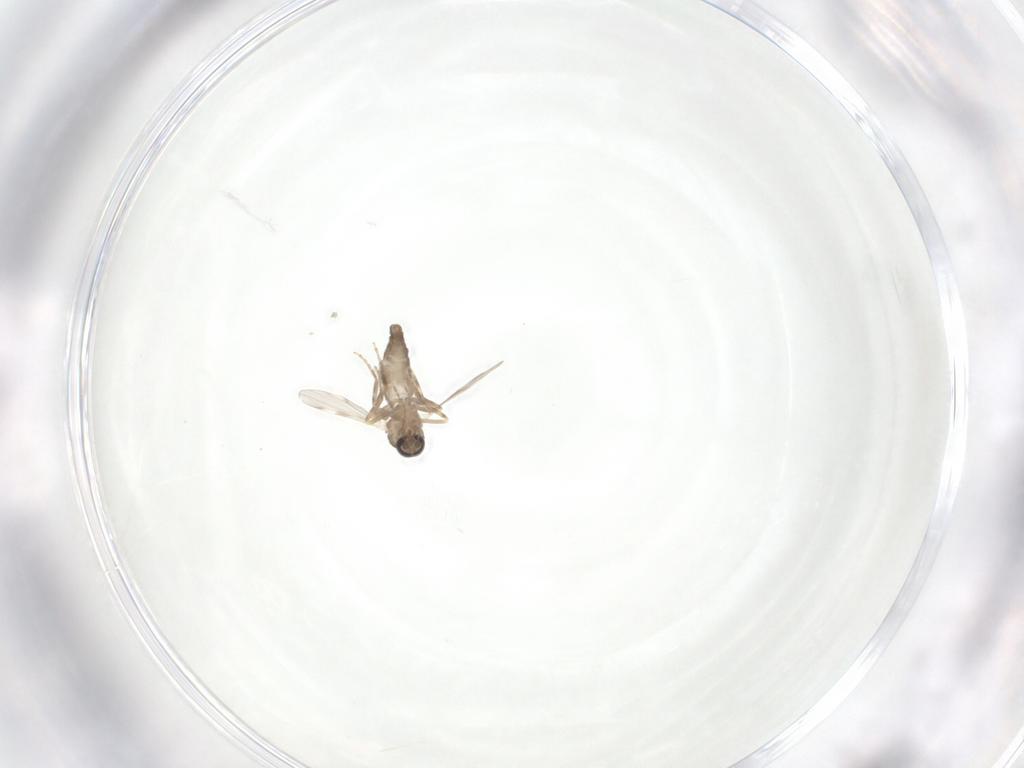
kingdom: Animalia
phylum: Arthropoda
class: Insecta
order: Diptera
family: Ceratopogonidae
